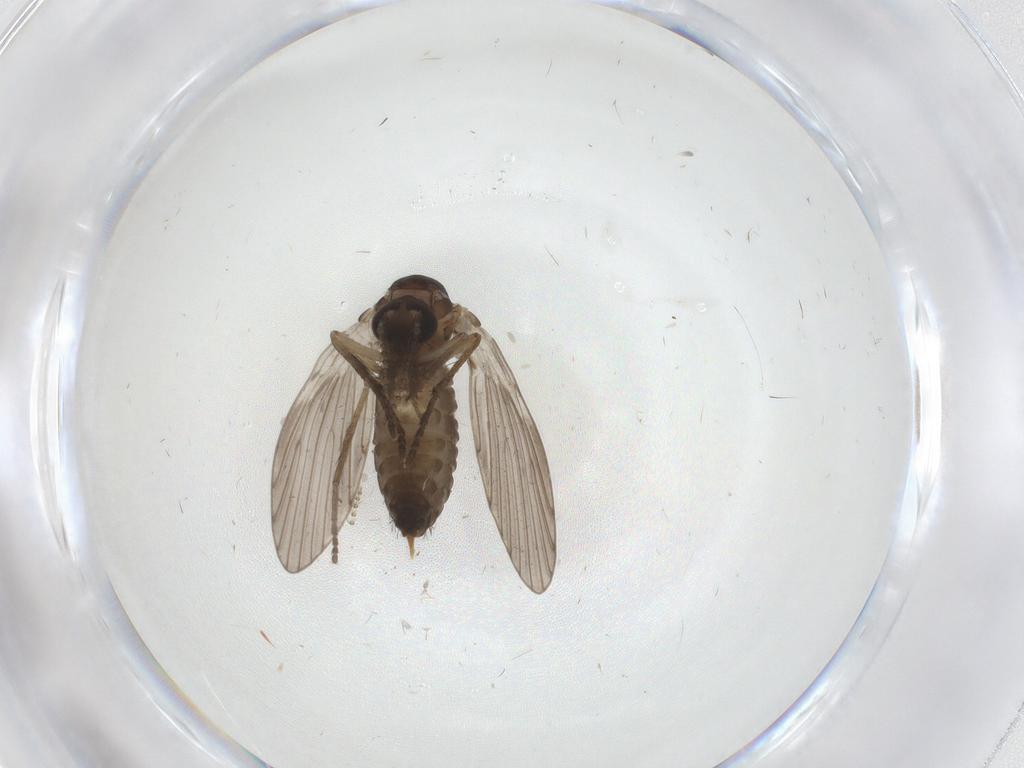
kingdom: Animalia
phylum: Arthropoda
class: Insecta
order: Diptera
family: Psychodidae
